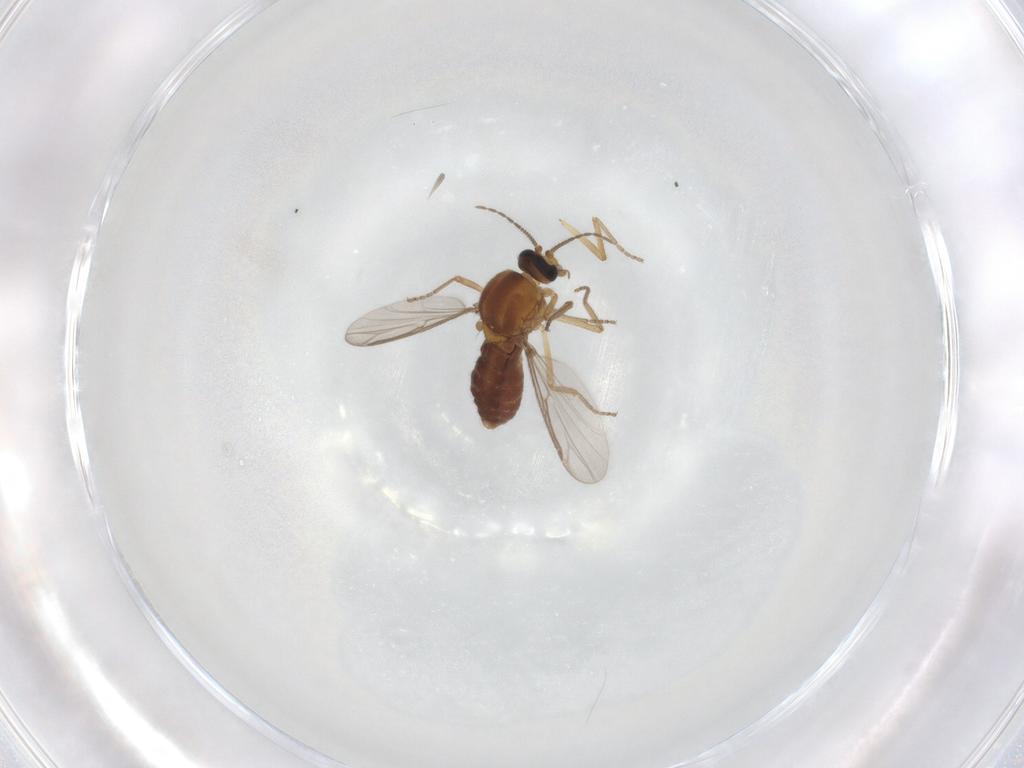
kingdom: Animalia
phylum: Arthropoda
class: Insecta
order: Diptera
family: Ceratopogonidae
